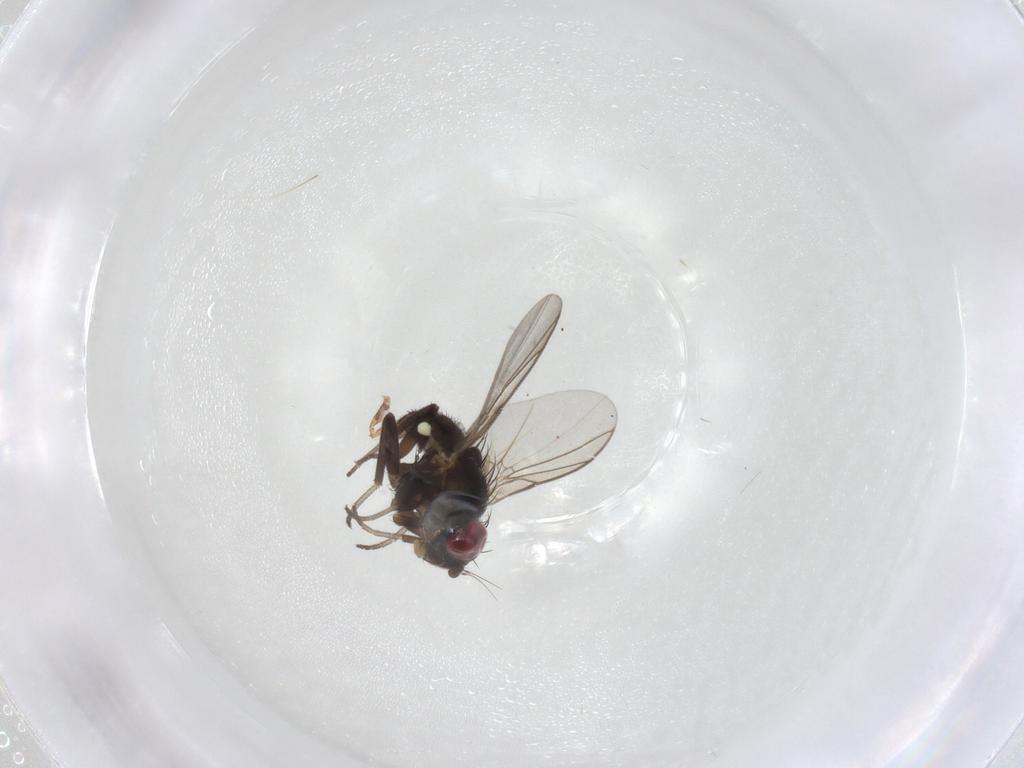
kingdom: Animalia
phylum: Arthropoda
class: Insecta
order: Diptera
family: Agromyzidae
